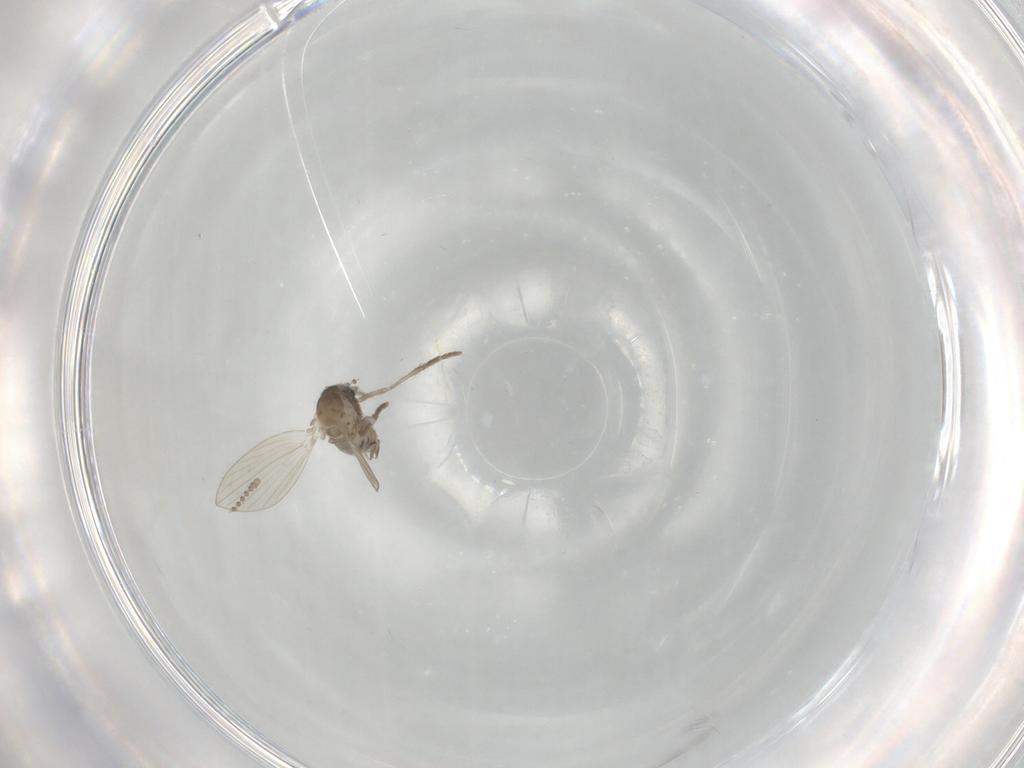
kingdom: Animalia
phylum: Arthropoda
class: Insecta
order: Diptera
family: Psychodidae
